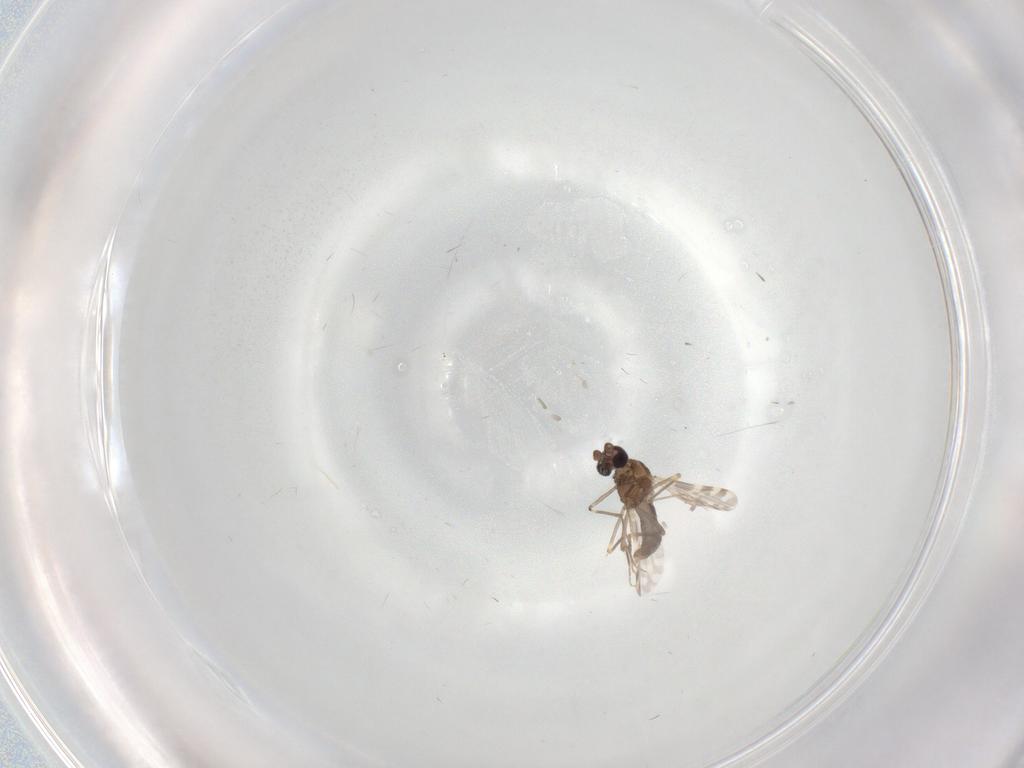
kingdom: Animalia
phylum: Arthropoda
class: Insecta
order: Diptera
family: Ceratopogonidae
